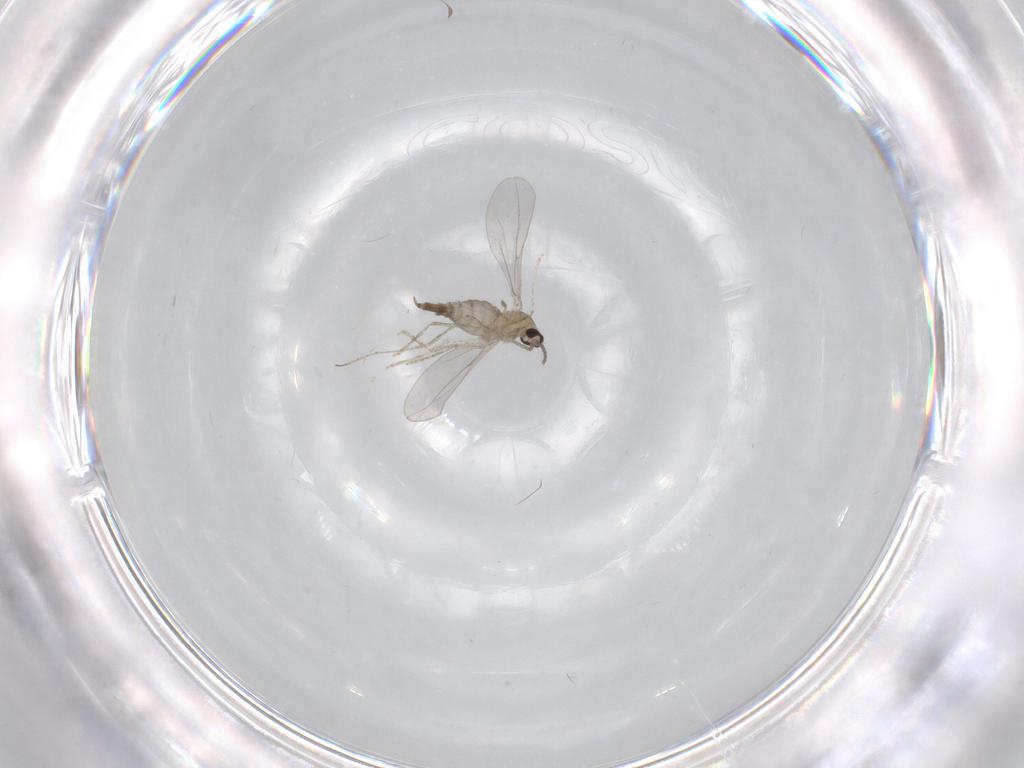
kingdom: Animalia
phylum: Arthropoda
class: Insecta
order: Diptera
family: Cecidomyiidae
